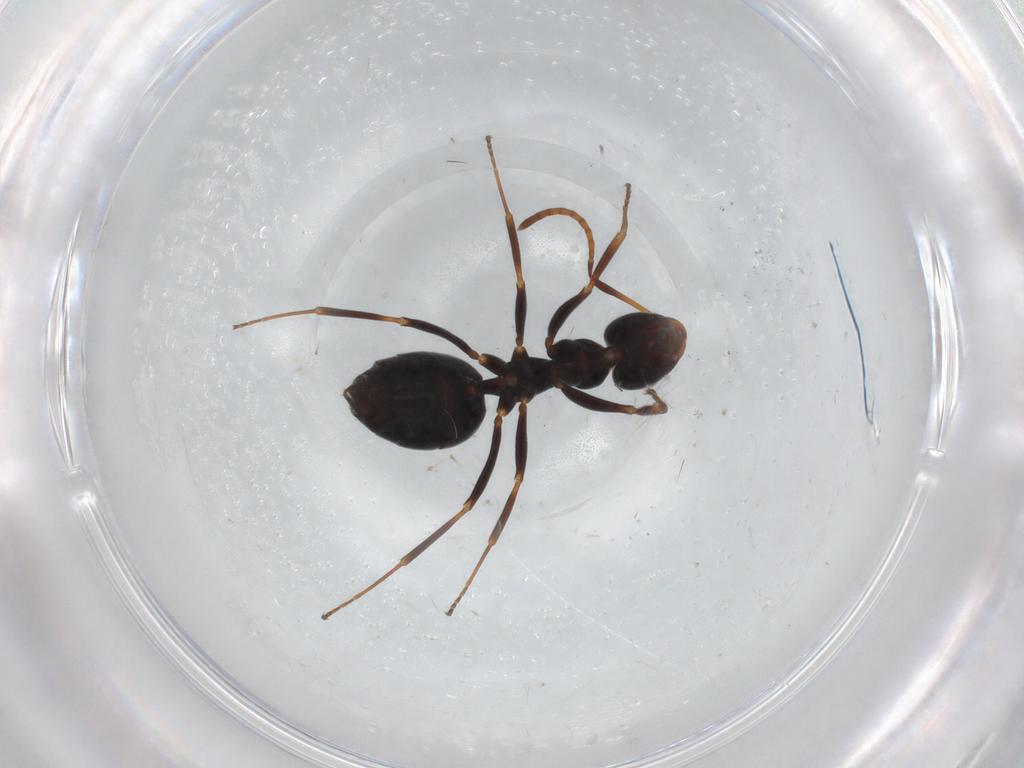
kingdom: Animalia
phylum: Arthropoda
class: Insecta
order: Hymenoptera
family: Formicidae
